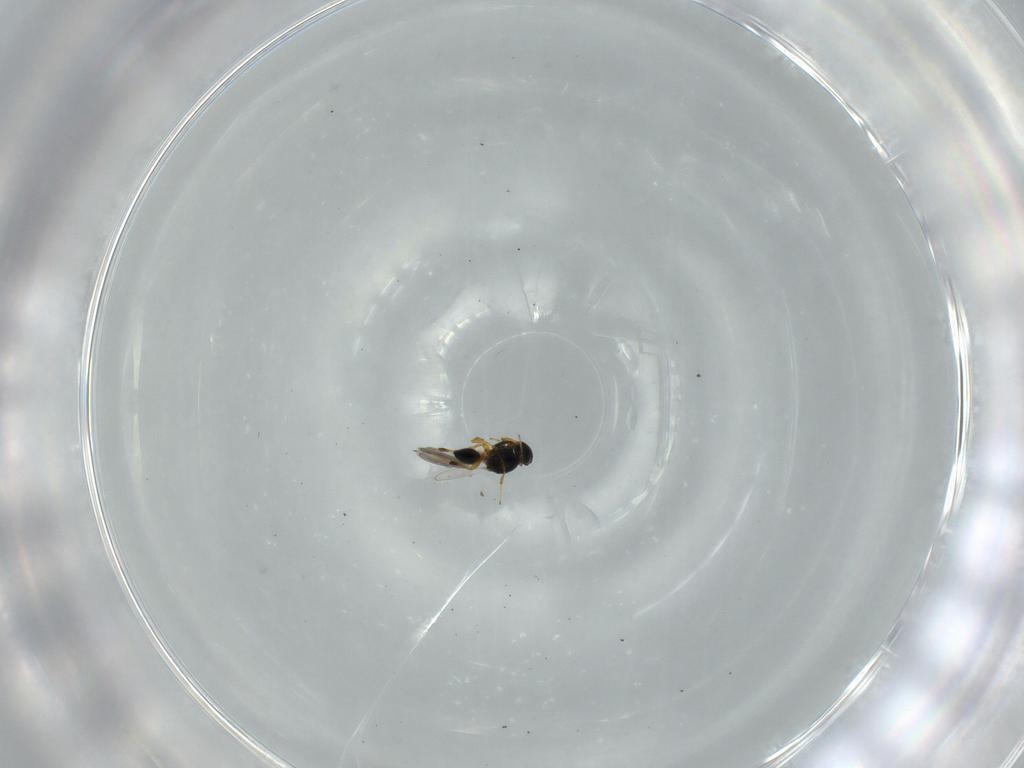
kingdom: Animalia
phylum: Arthropoda
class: Insecta
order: Hymenoptera
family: Platygastridae
